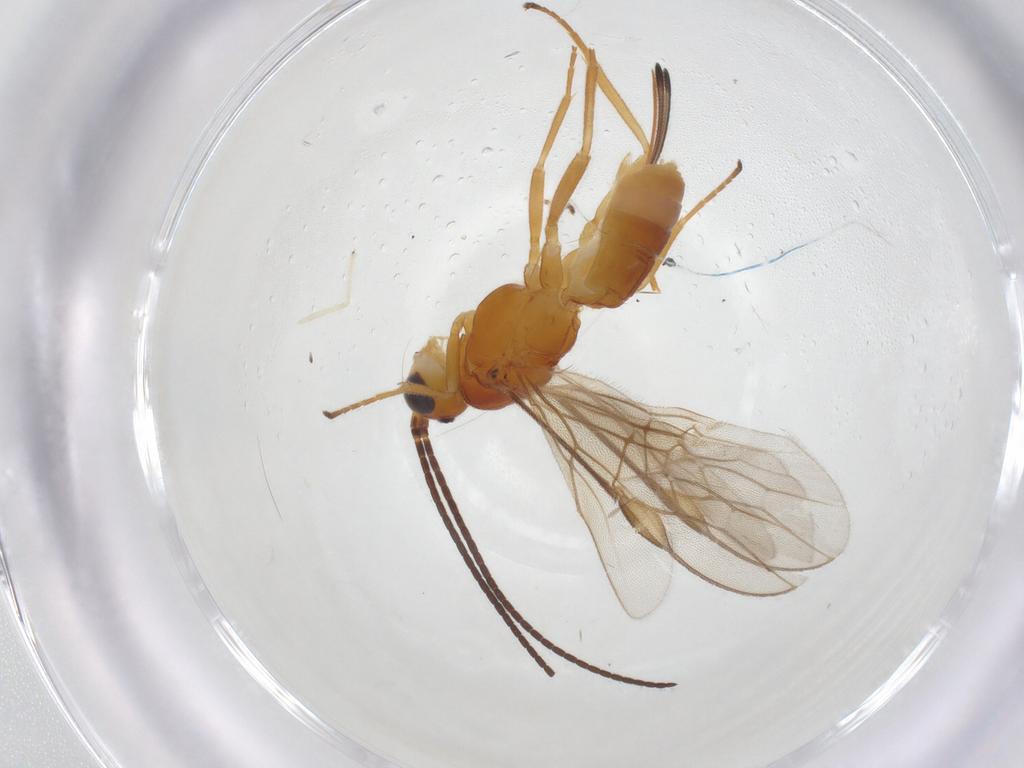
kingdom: Animalia
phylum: Arthropoda
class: Insecta
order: Hymenoptera
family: Braconidae
